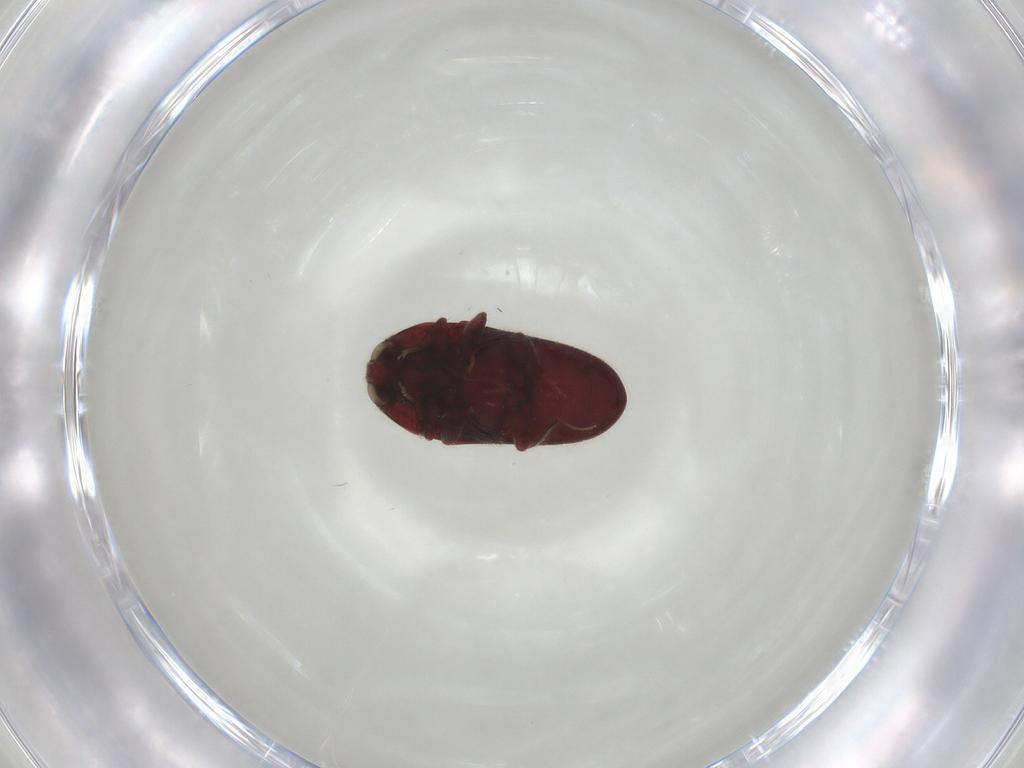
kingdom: Animalia
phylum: Arthropoda
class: Insecta
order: Coleoptera
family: Throscidae
